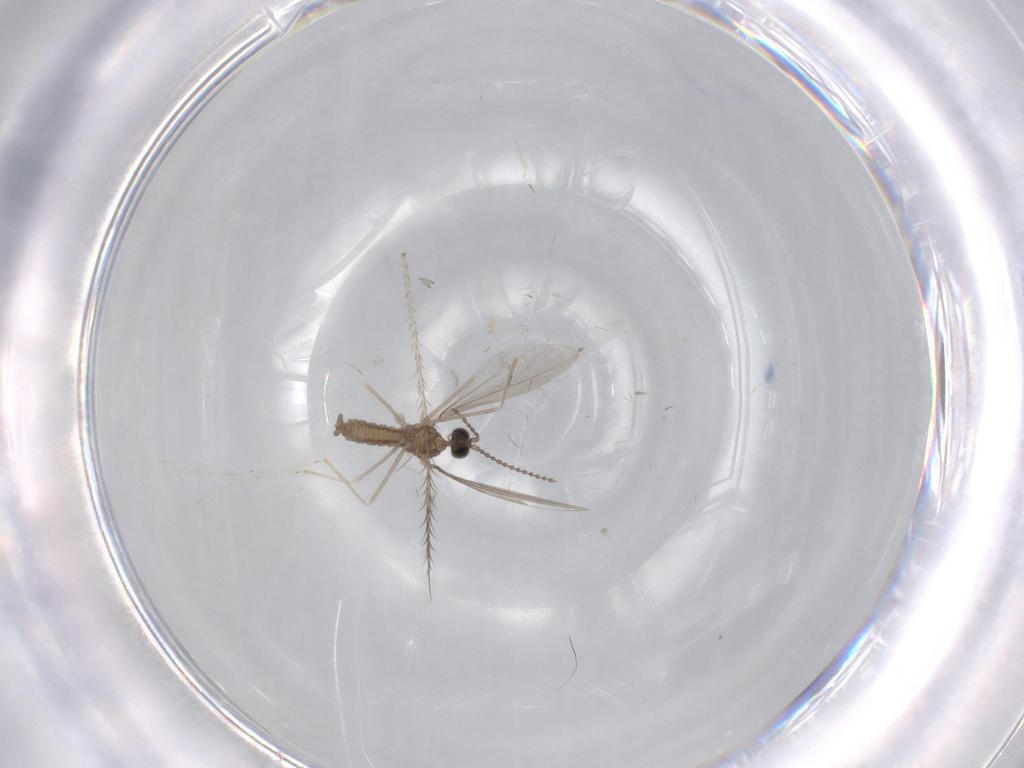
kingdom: Animalia
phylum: Arthropoda
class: Insecta
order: Diptera
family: Cecidomyiidae
